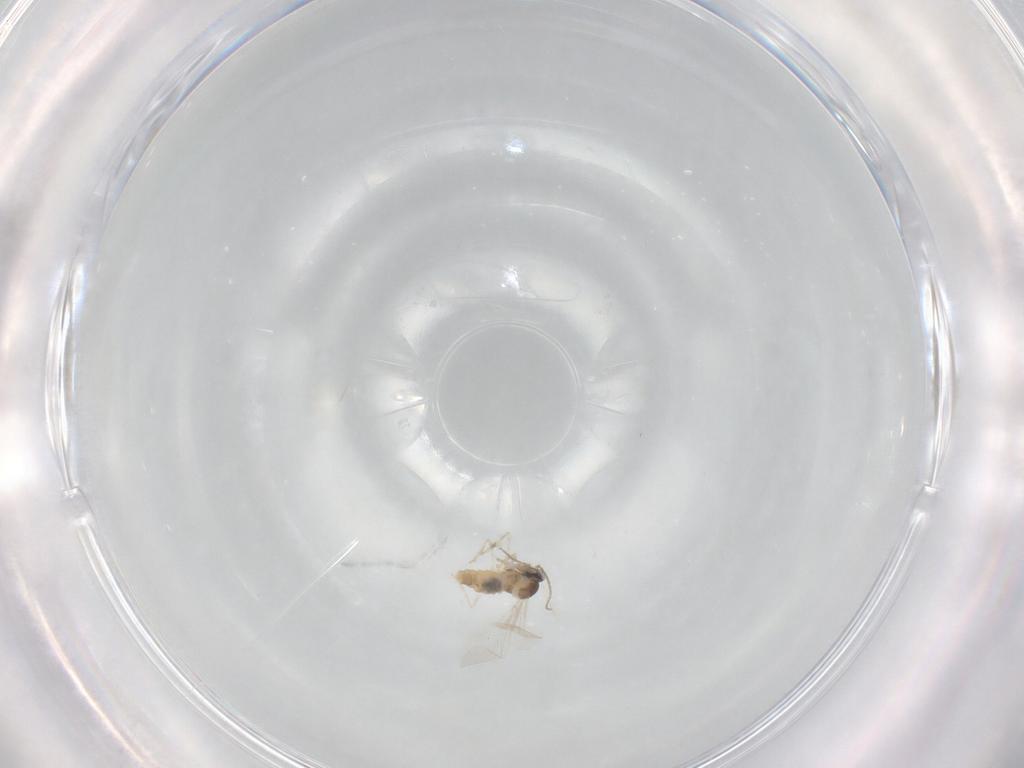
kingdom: Animalia
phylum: Arthropoda
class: Insecta
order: Diptera
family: Cecidomyiidae
